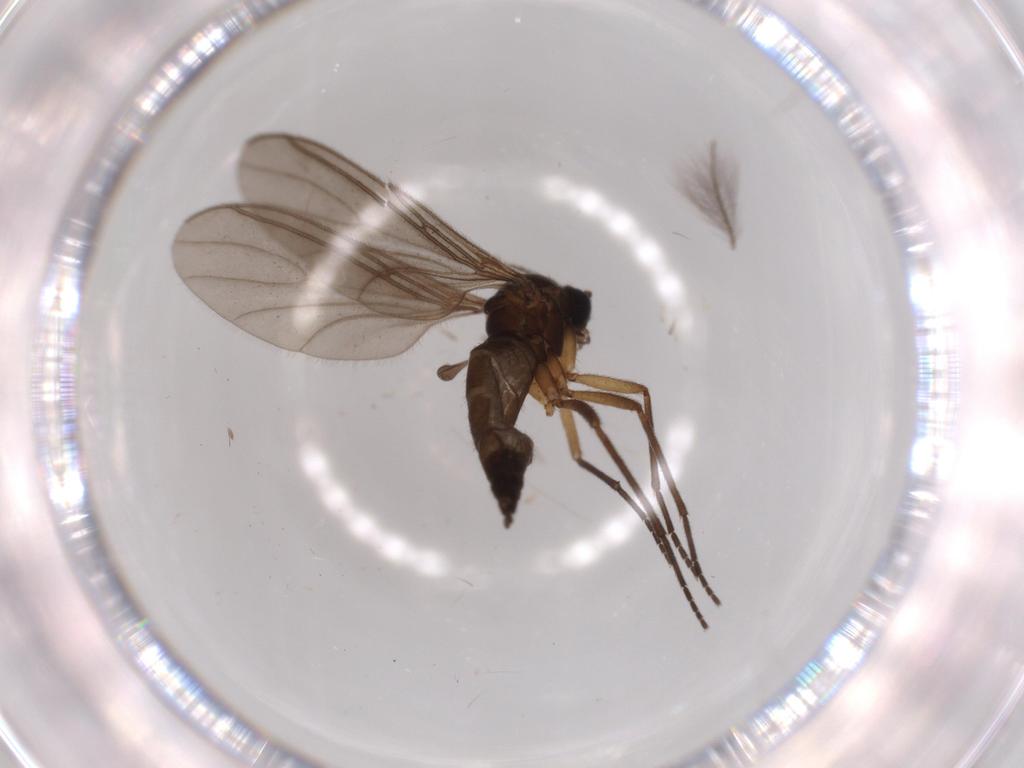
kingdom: Animalia
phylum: Arthropoda
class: Insecta
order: Diptera
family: Chironomidae
